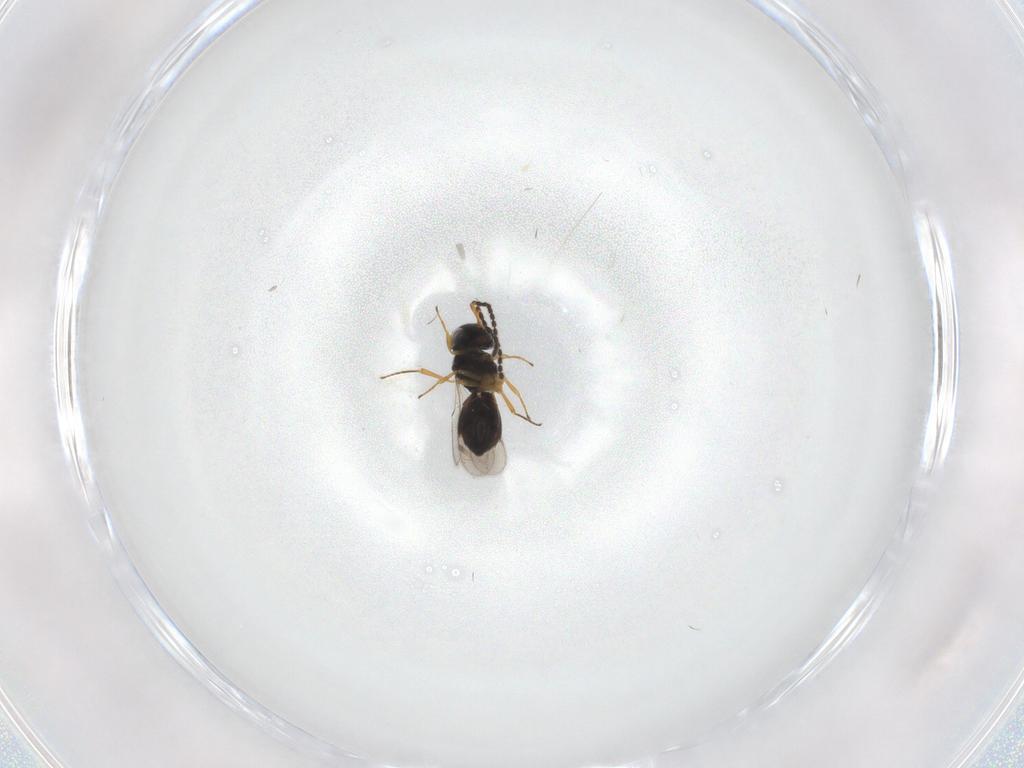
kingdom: Animalia
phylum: Arthropoda
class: Insecta
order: Hymenoptera
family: Scelionidae
